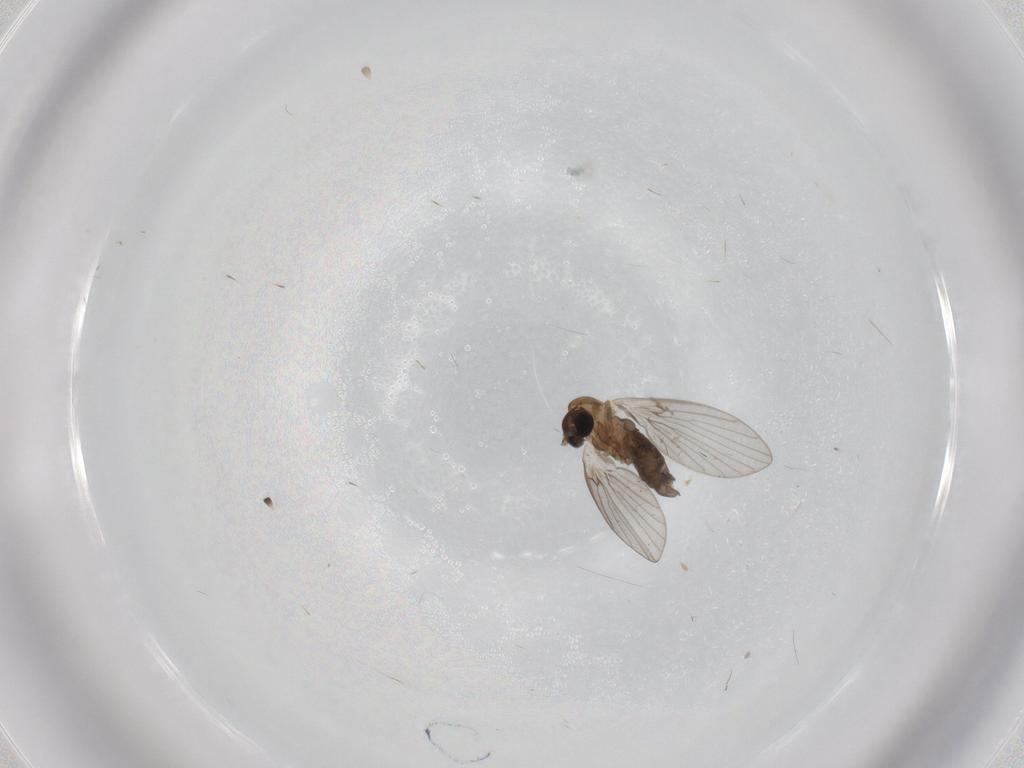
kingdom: Animalia
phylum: Arthropoda
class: Insecta
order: Diptera
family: Psychodidae
